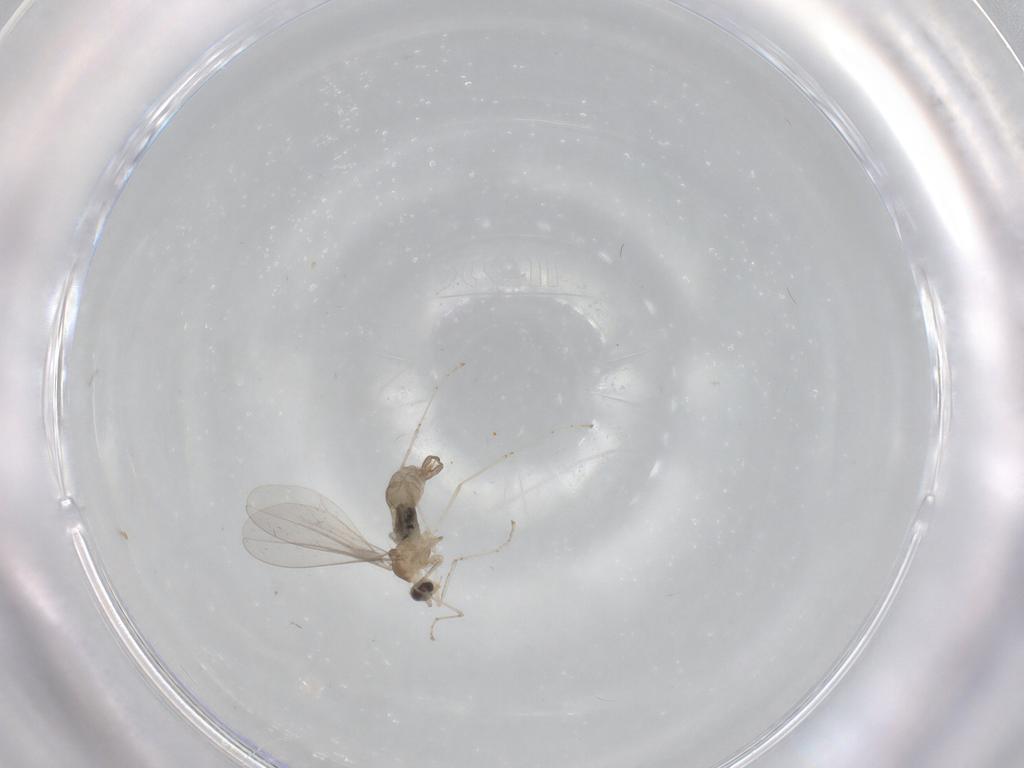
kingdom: Animalia
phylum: Arthropoda
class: Insecta
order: Diptera
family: Cecidomyiidae
